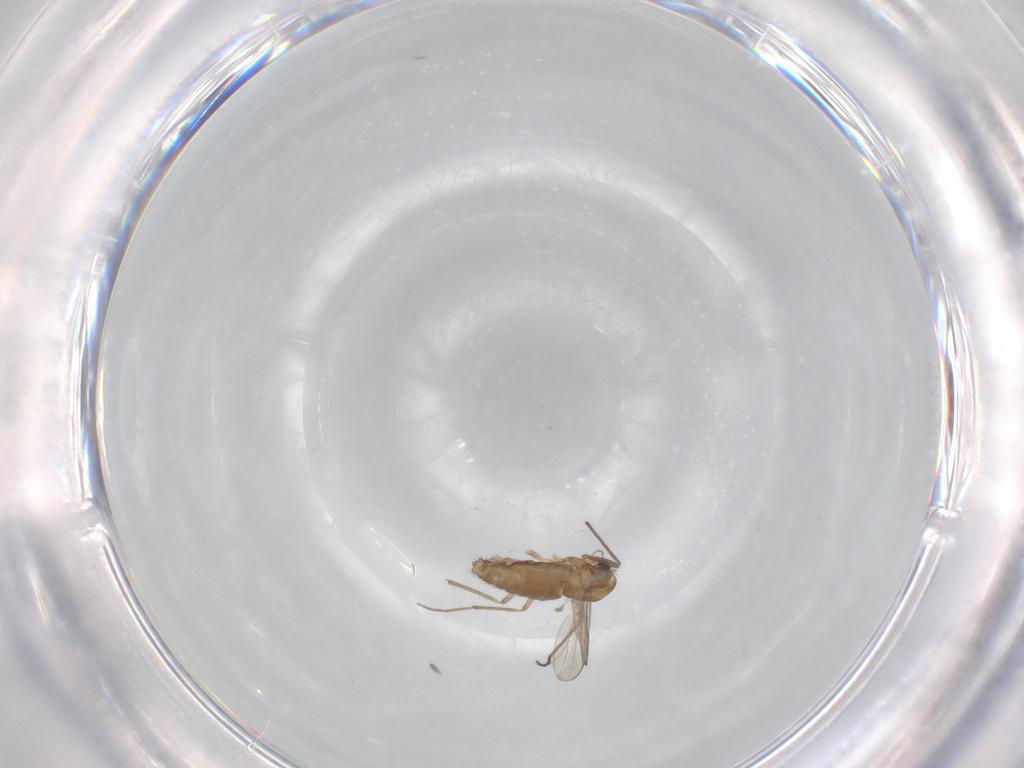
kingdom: Animalia
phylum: Arthropoda
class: Insecta
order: Diptera
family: Chironomidae
